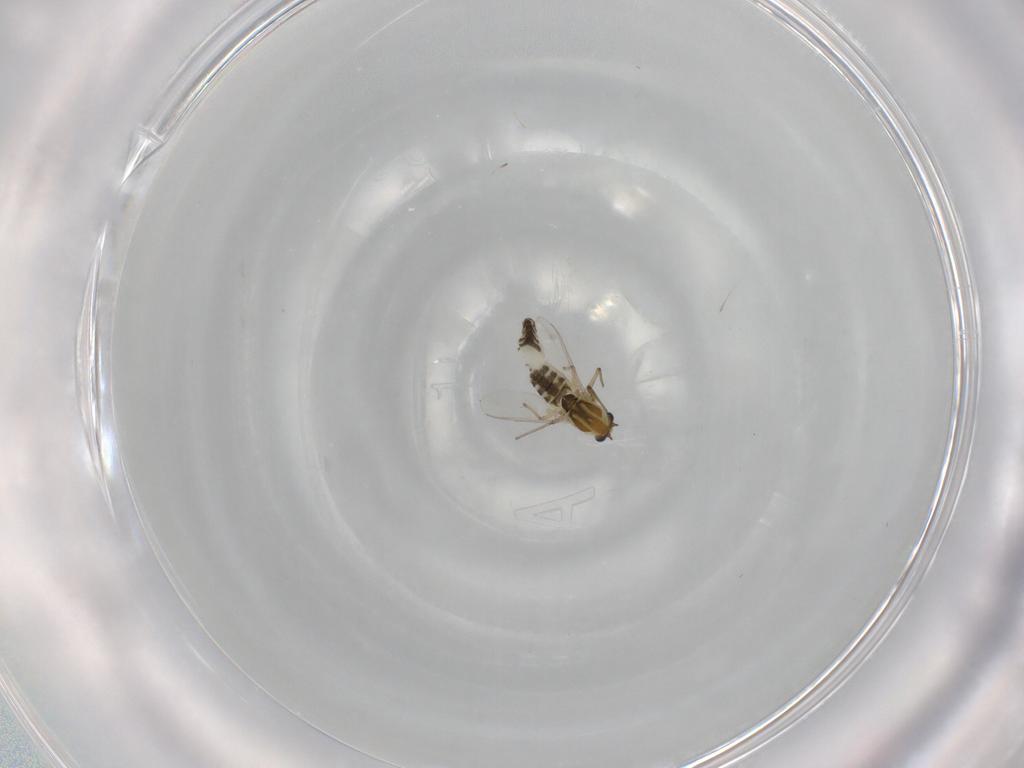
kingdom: Animalia
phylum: Arthropoda
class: Insecta
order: Diptera
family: Chironomidae
